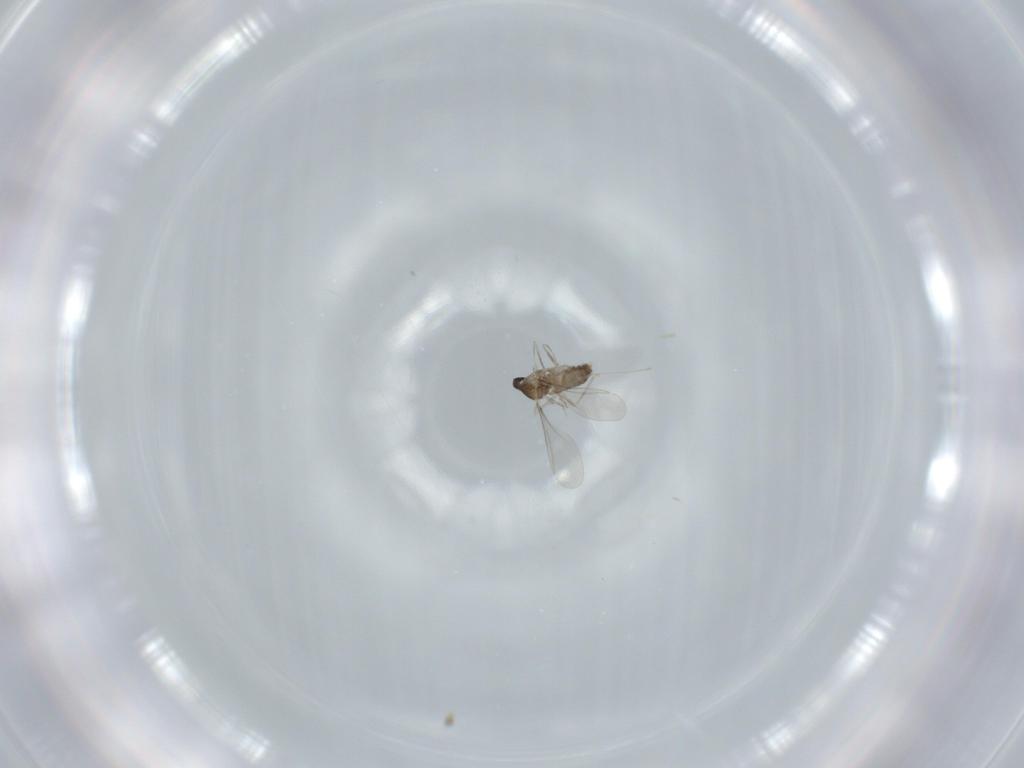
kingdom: Animalia
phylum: Arthropoda
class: Insecta
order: Diptera
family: Cecidomyiidae
